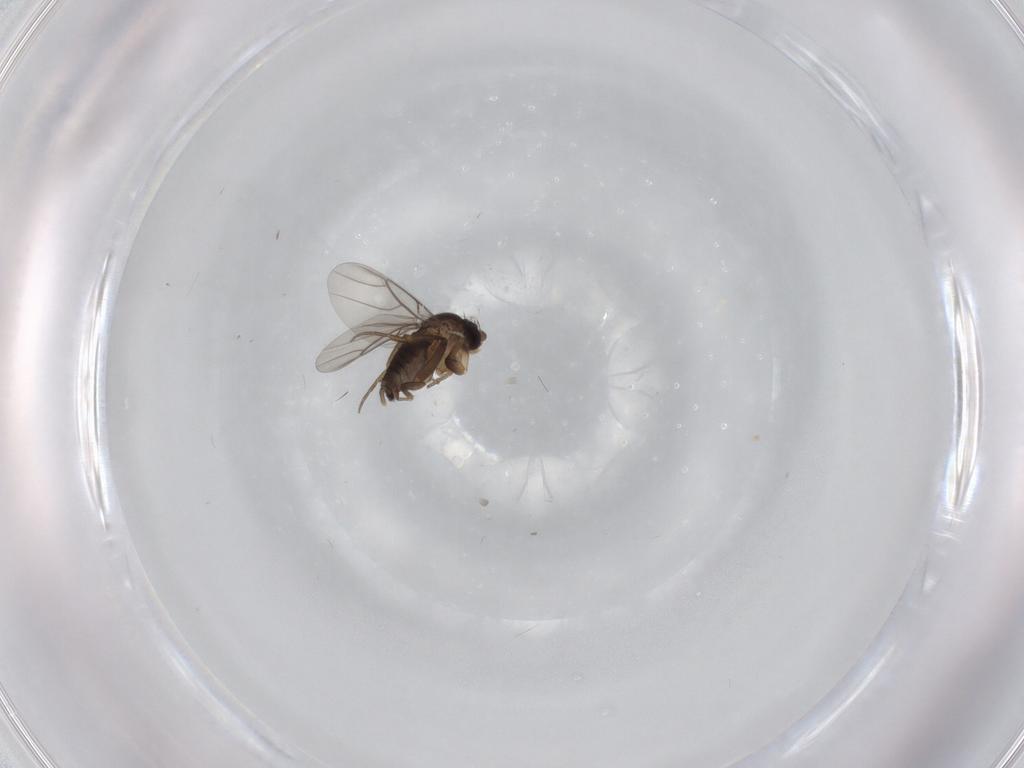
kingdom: Animalia
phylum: Arthropoda
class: Insecta
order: Diptera
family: Phoridae
